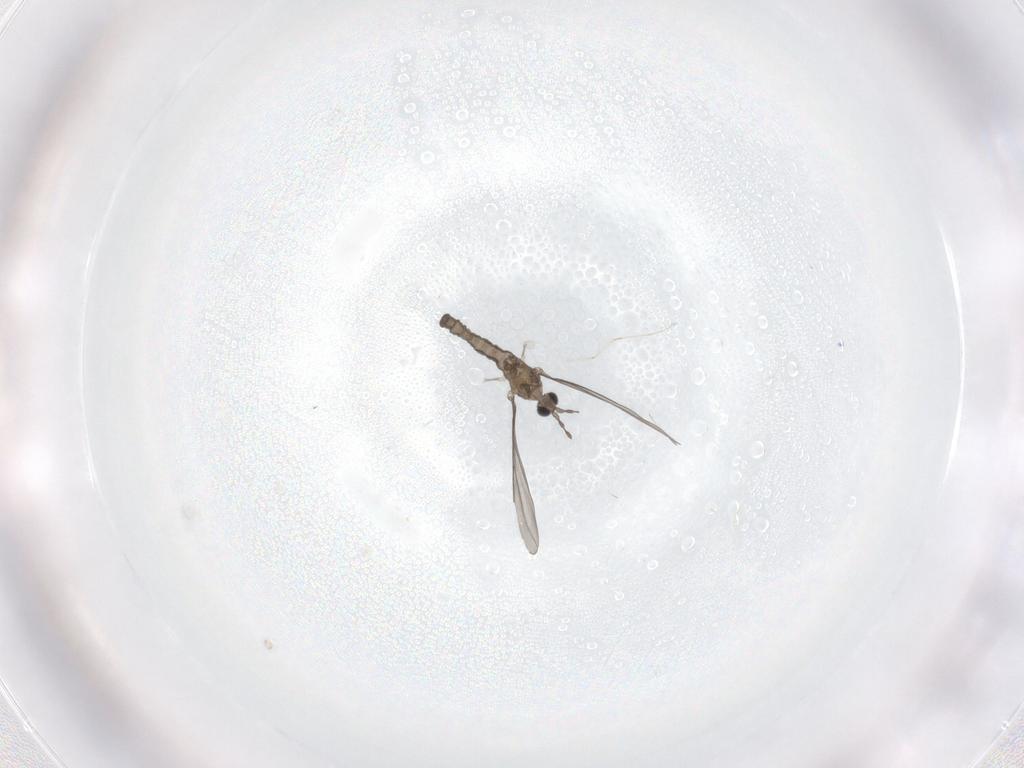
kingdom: Animalia
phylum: Arthropoda
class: Insecta
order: Diptera
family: Cecidomyiidae
